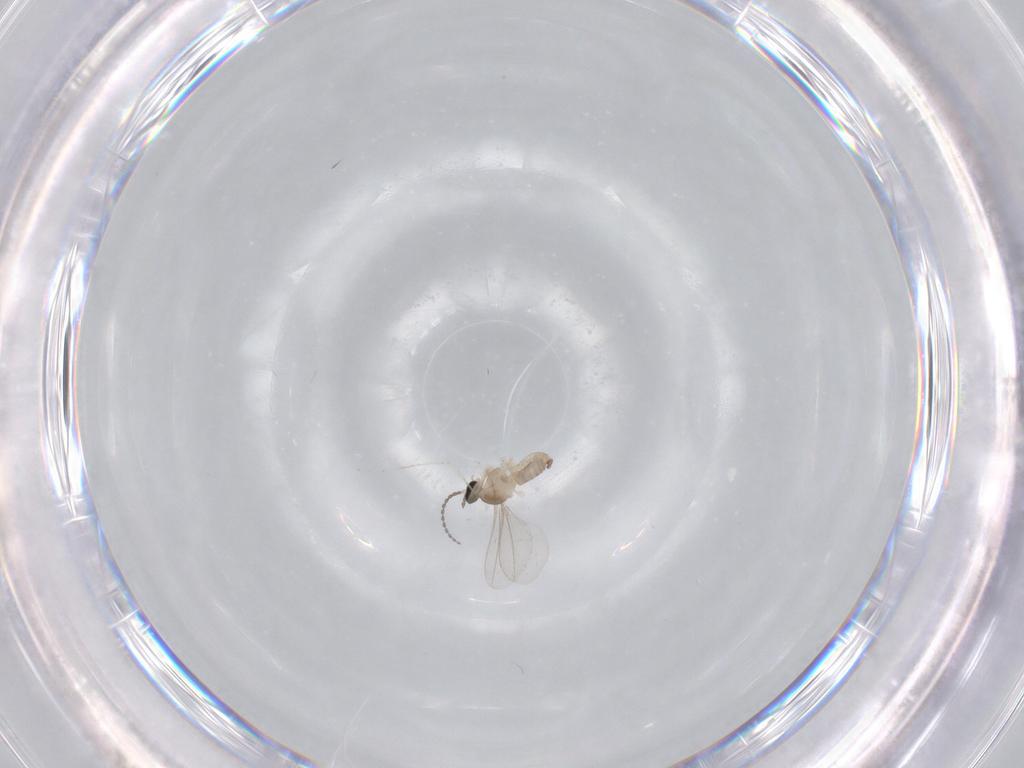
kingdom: Animalia
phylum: Arthropoda
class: Insecta
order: Diptera
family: Cecidomyiidae
